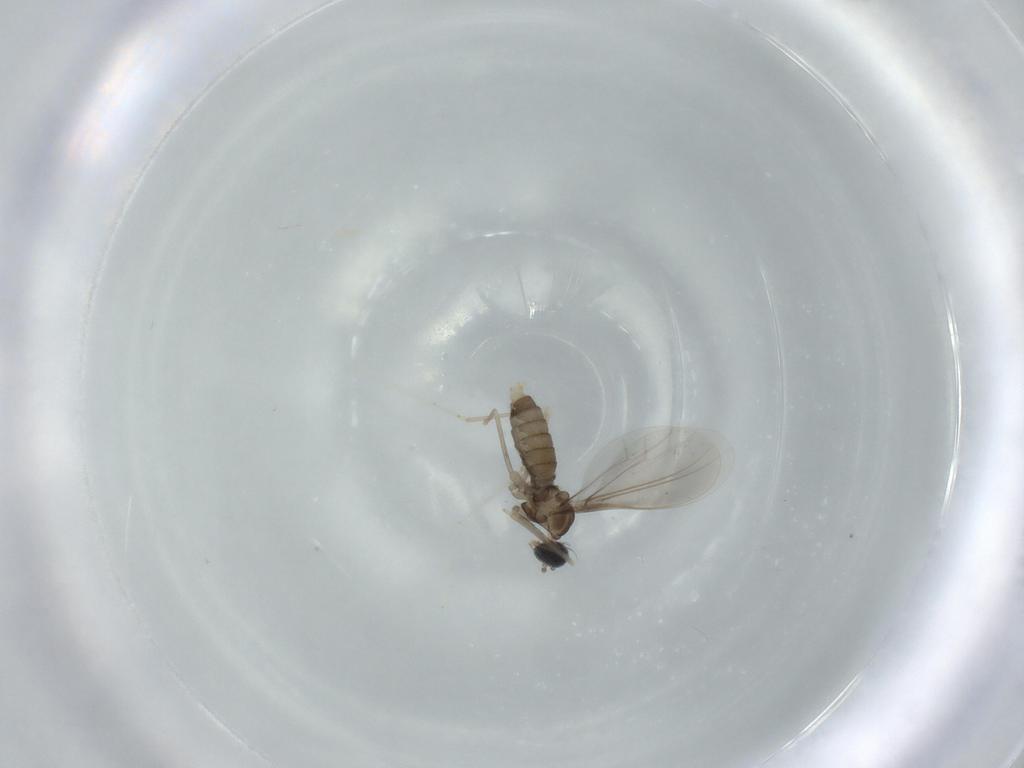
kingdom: Animalia
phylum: Arthropoda
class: Insecta
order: Diptera
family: Cecidomyiidae
